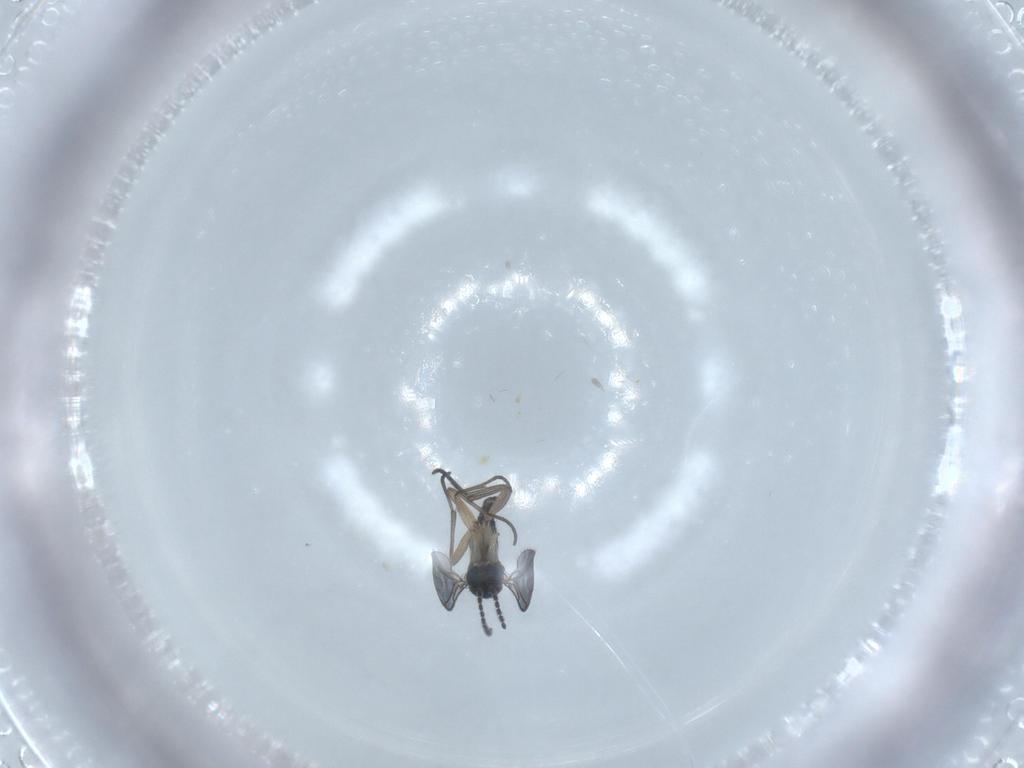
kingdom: Animalia
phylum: Arthropoda
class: Insecta
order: Diptera
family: Sciaridae
